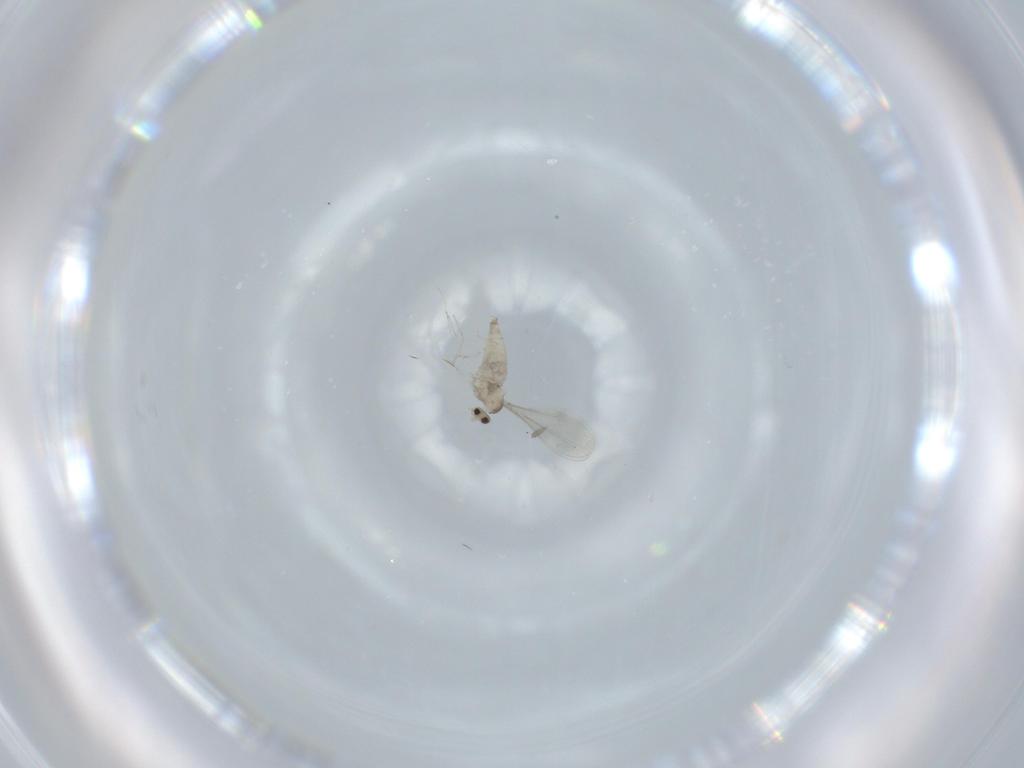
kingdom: Animalia
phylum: Arthropoda
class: Insecta
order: Diptera
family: Cecidomyiidae
